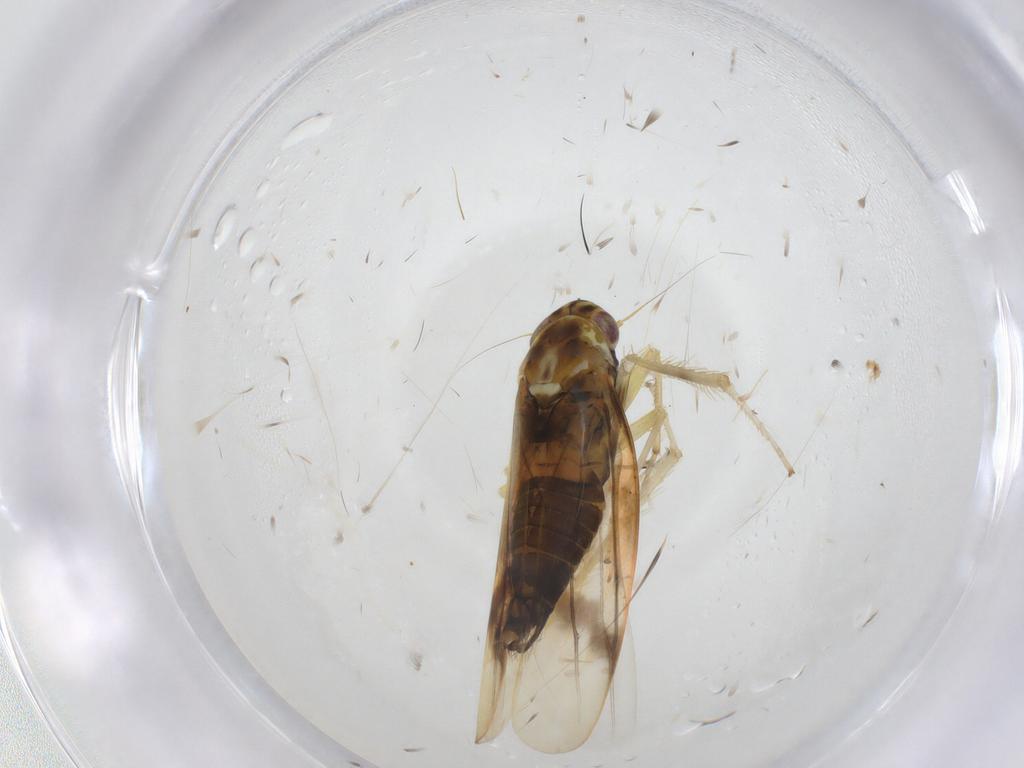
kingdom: Animalia
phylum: Arthropoda
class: Insecta
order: Hemiptera
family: Cicadellidae
